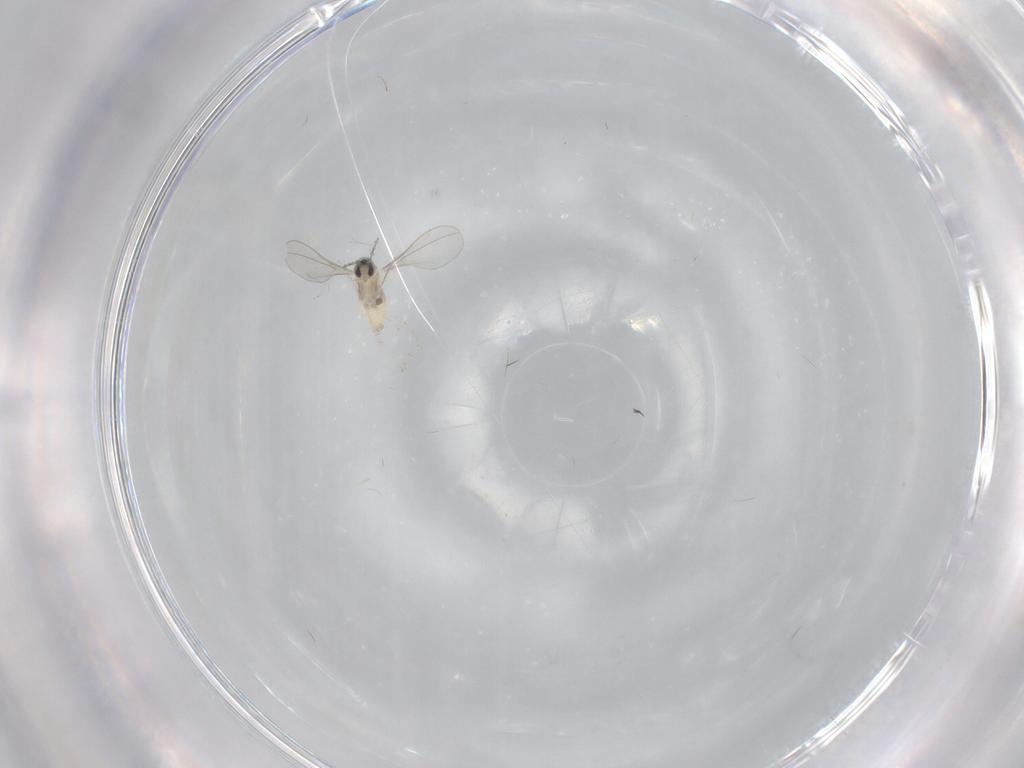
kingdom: Animalia
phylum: Arthropoda
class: Insecta
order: Diptera
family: Cecidomyiidae
